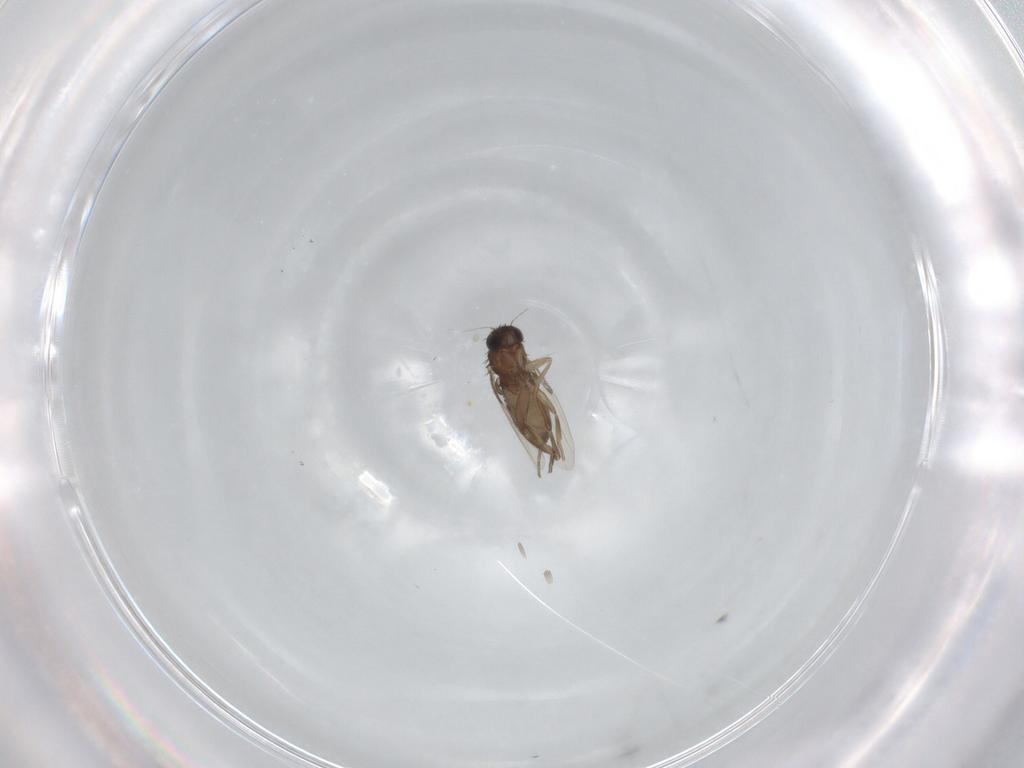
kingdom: Animalia
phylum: Arthropoda
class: Insecta
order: Diptera
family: Phoridae
